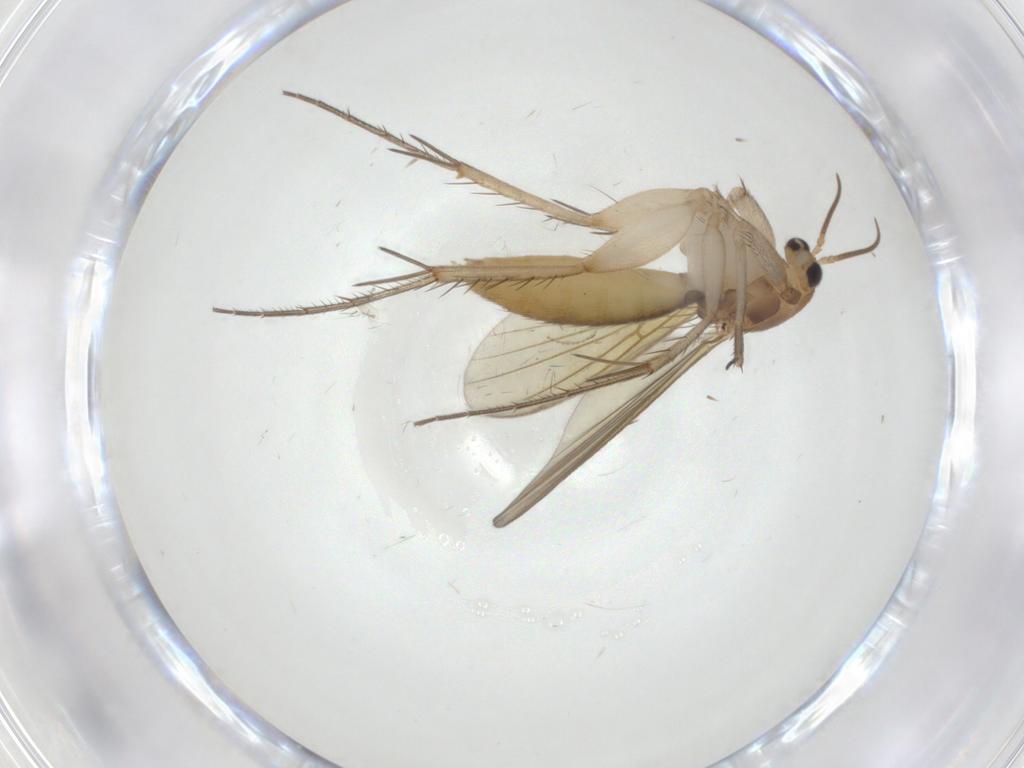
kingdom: Animalia
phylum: Arthropoda
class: Insecta
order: Diptera
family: Mycetophilidae
